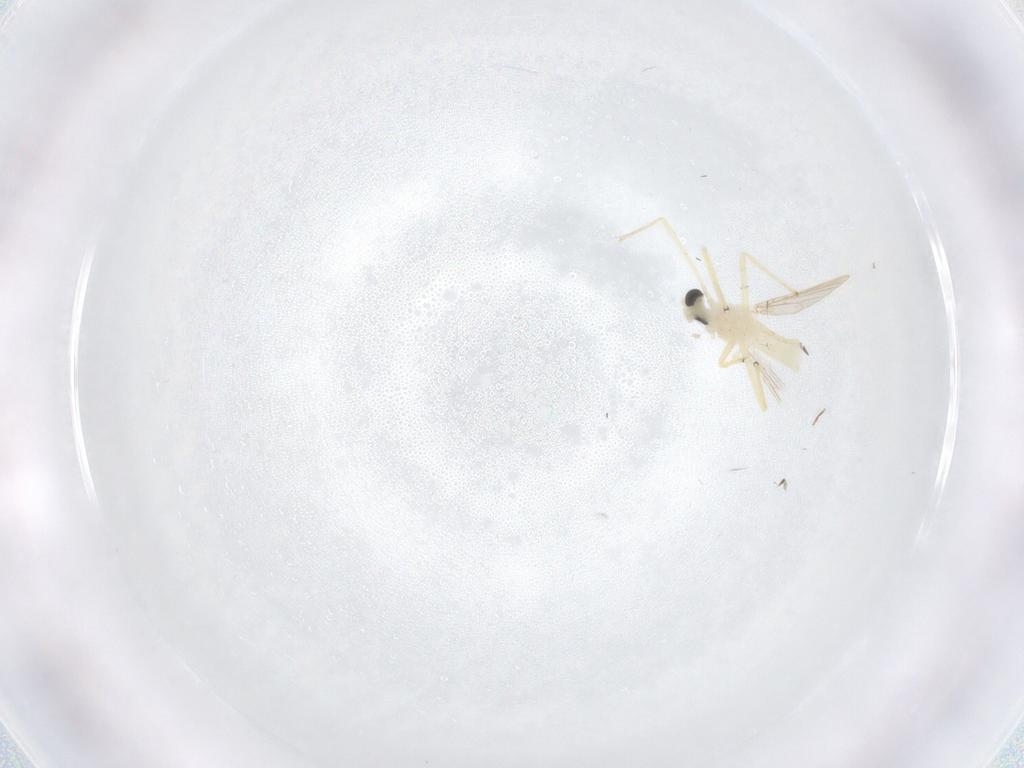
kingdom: Animalia
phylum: Arthropoda
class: Insecta
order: Diptera
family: Chironomidae
